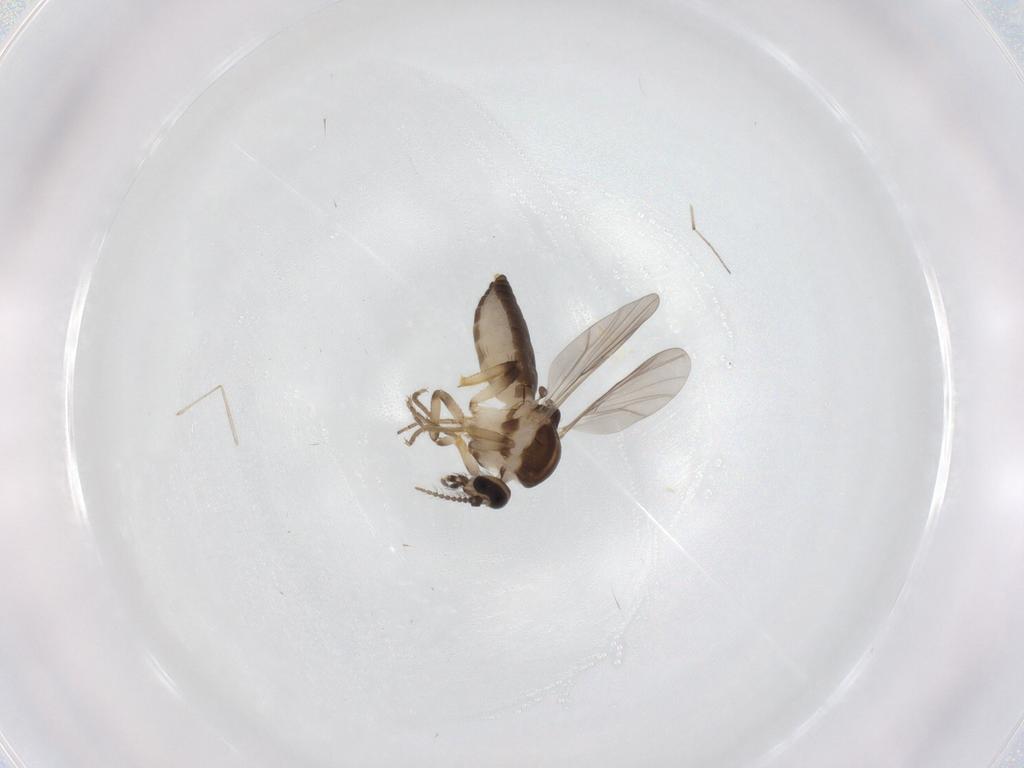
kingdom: Animalia
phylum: Arthropoda
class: Insecta
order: Diptera
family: Ceratopogonidae
